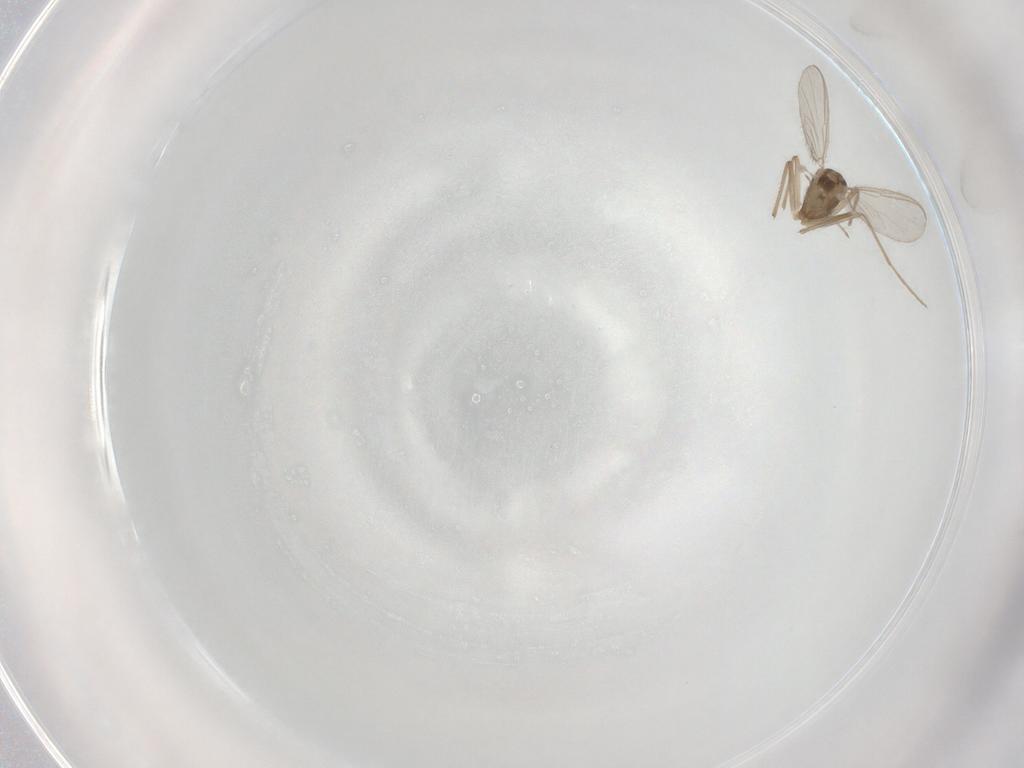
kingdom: Animalia
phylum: Arthropoda
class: Insecta
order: Diptera
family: Chironomidae
